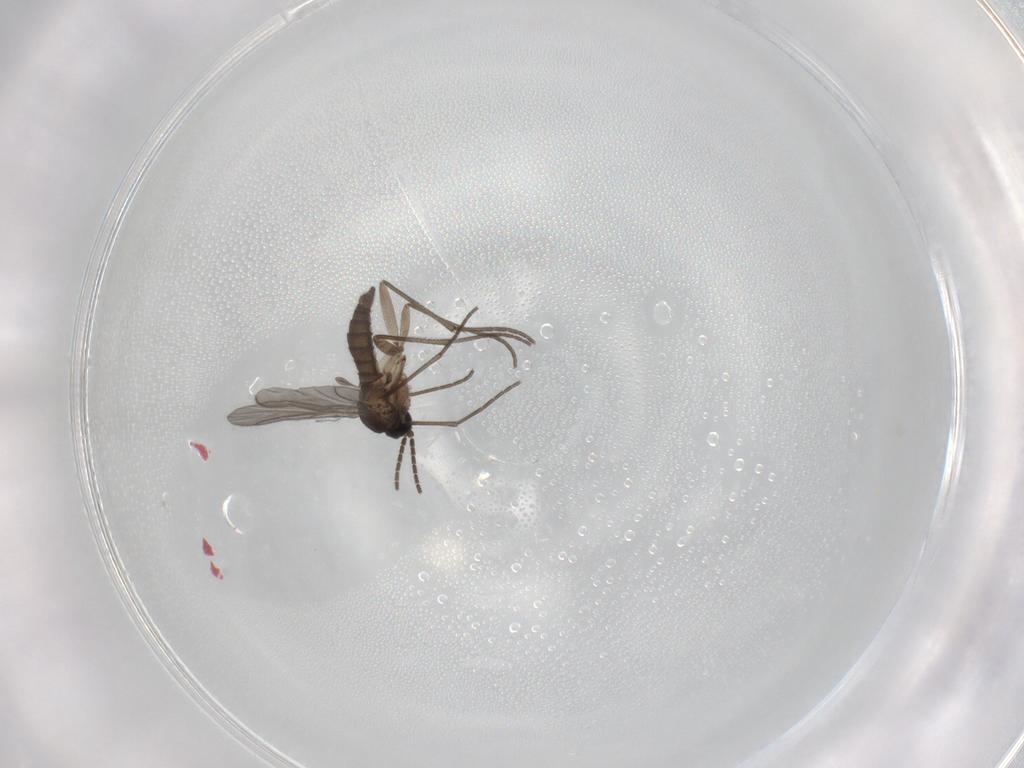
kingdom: Animalia
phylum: Arthropoda
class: Insecta
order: Diptera
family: Sciaridae
